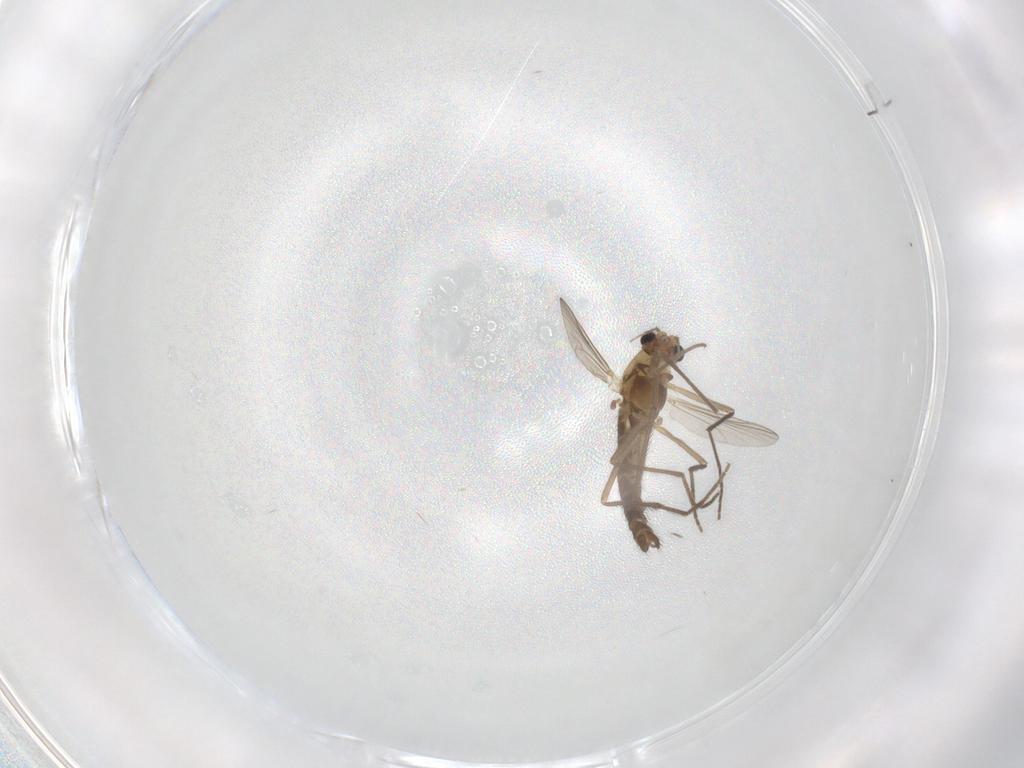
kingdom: Animalia
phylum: Arthropoda
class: Insecta
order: Diptera
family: Chironomidae
